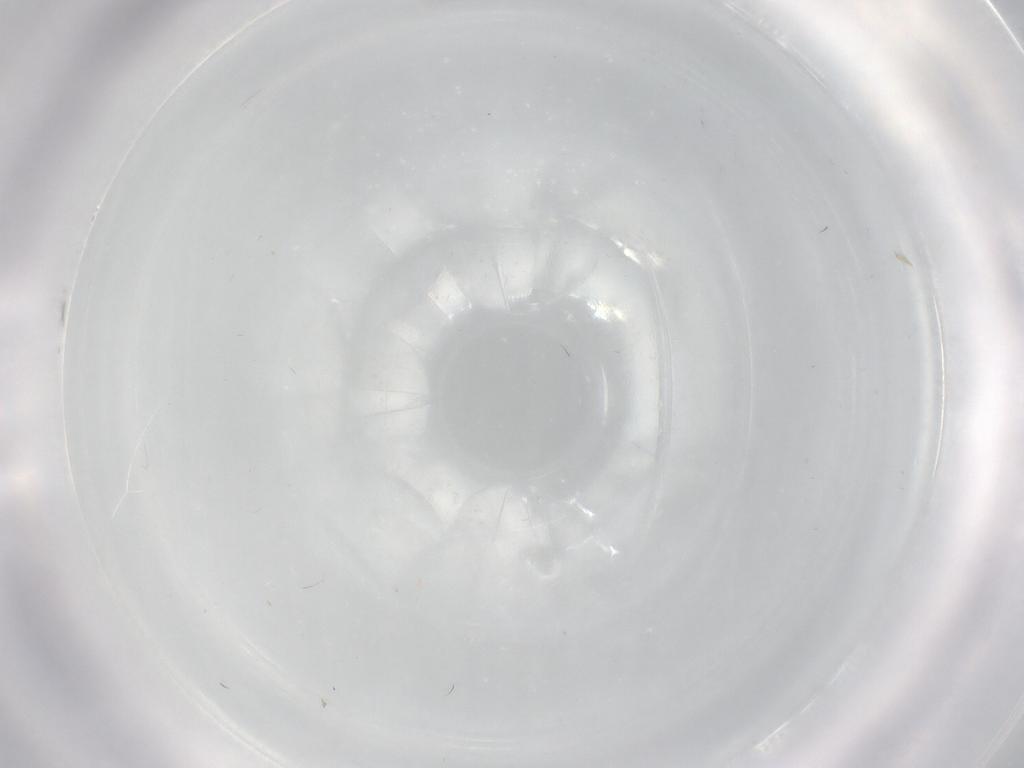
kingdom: Animalia
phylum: Arthropoda
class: Insecta
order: Diptera
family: Cecidomyiidae
